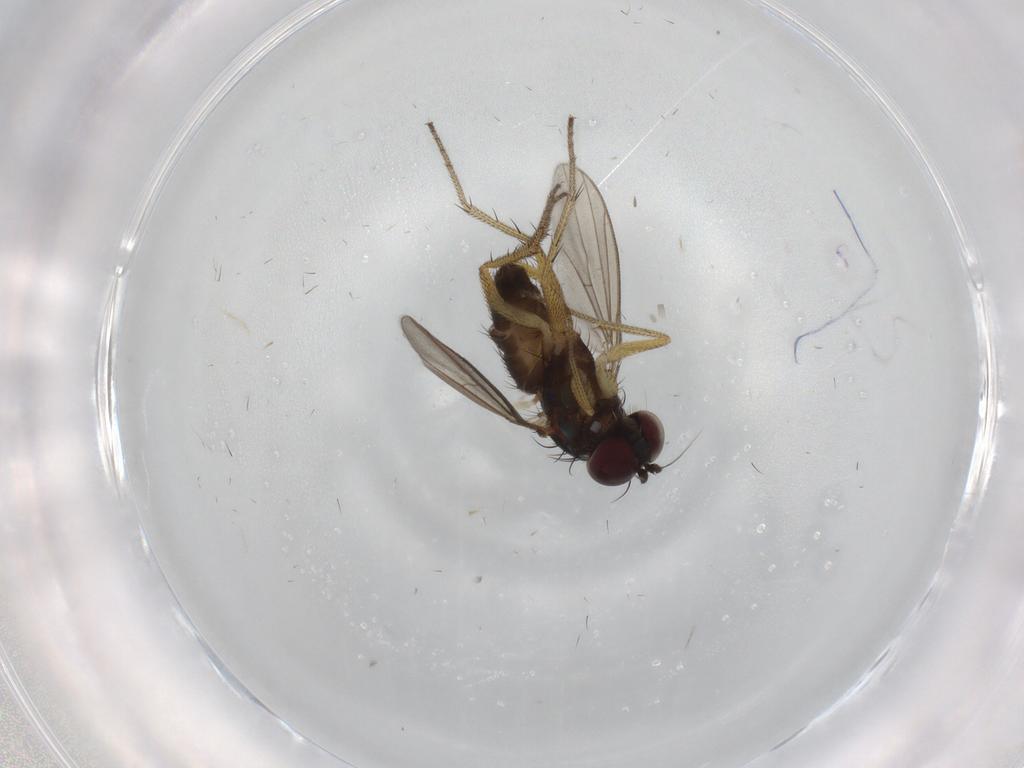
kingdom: Animalia
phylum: Arthropoda
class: Insecta
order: Diptera
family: Dolichopodidae
